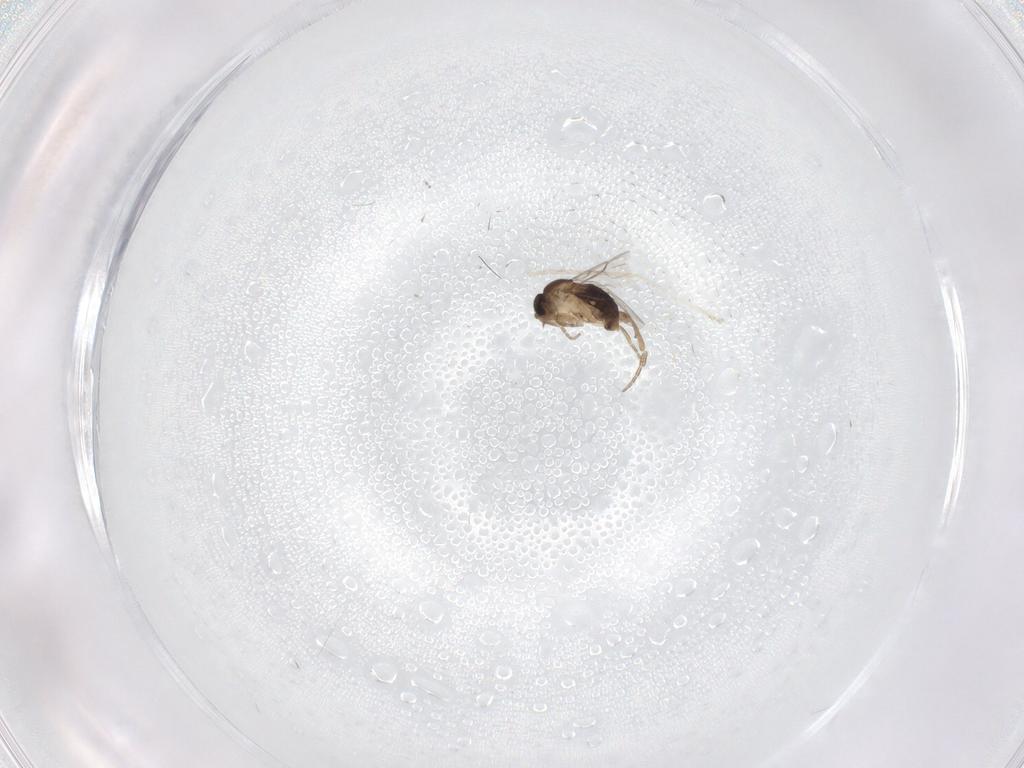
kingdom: Animalia
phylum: Arthropoda
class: Insecta
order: Diptera
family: Cecidomyiidae
